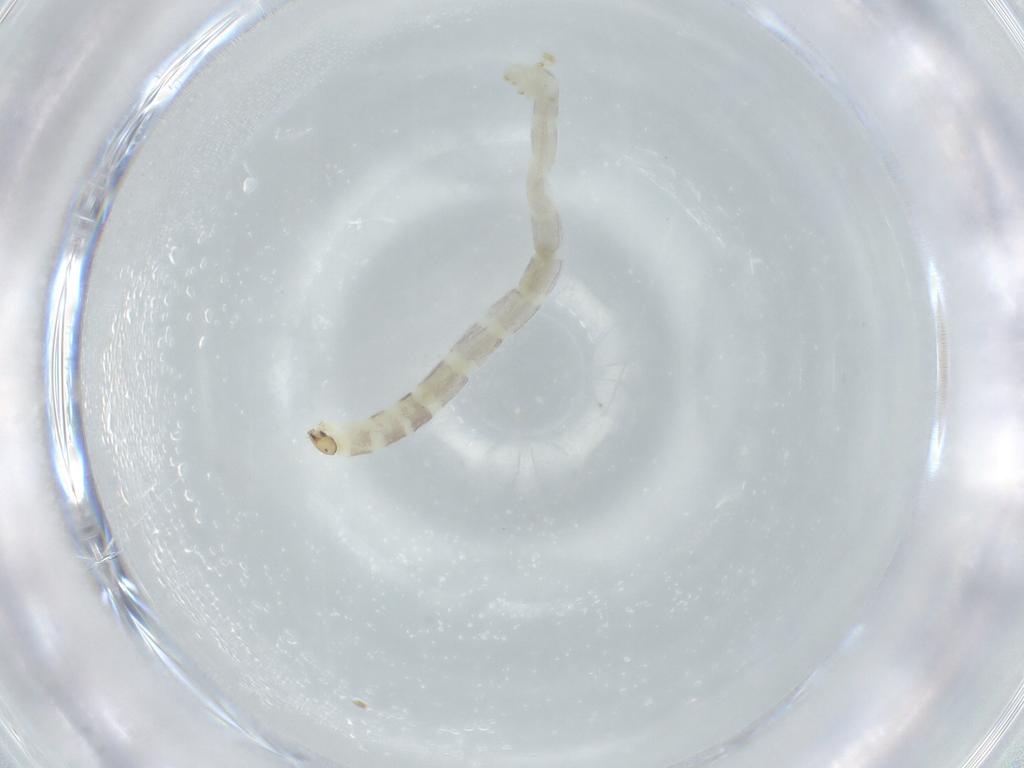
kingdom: Animalia
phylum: Arthropoda
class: Insecta
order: Diptera
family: Chironomidae
